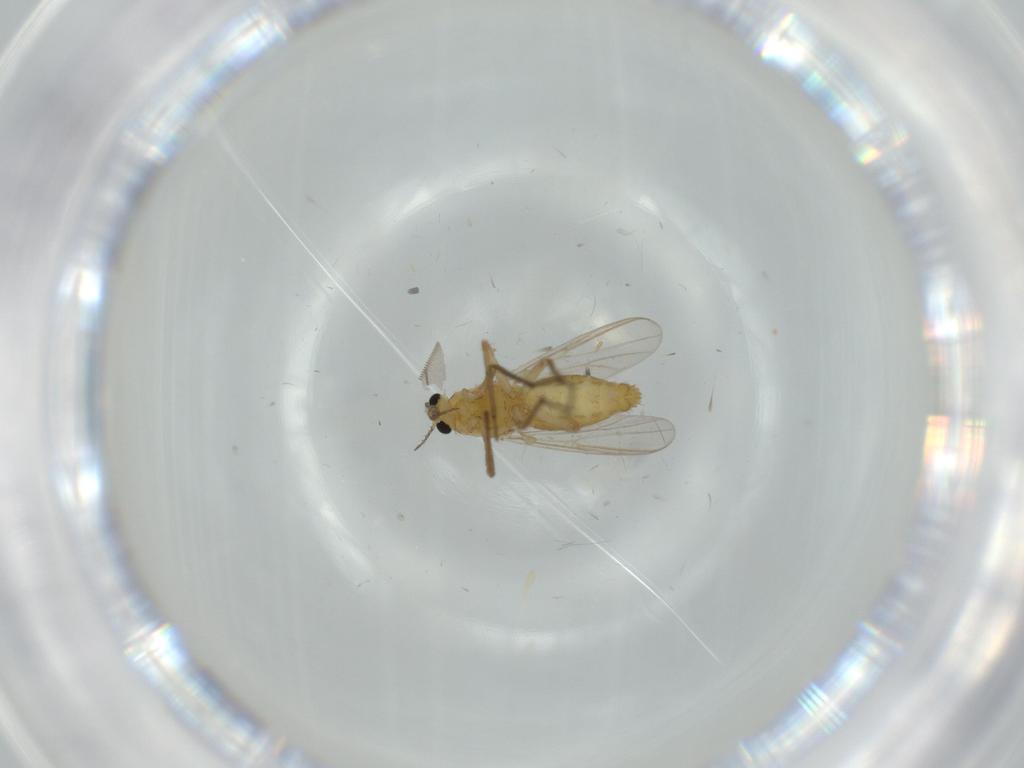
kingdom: Animalia
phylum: Arthropoda
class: Insecta
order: Diptera
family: Chironomidae
